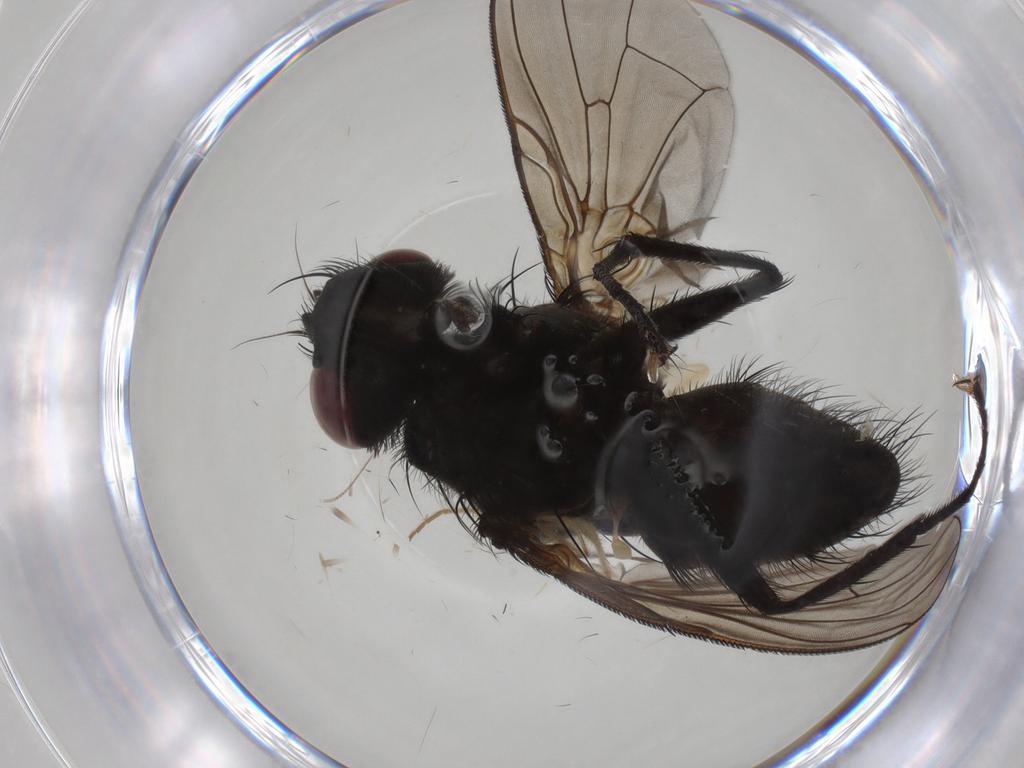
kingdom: Animalia
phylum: Arthropoda
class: Insecta
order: Diptera
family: Muscidae
